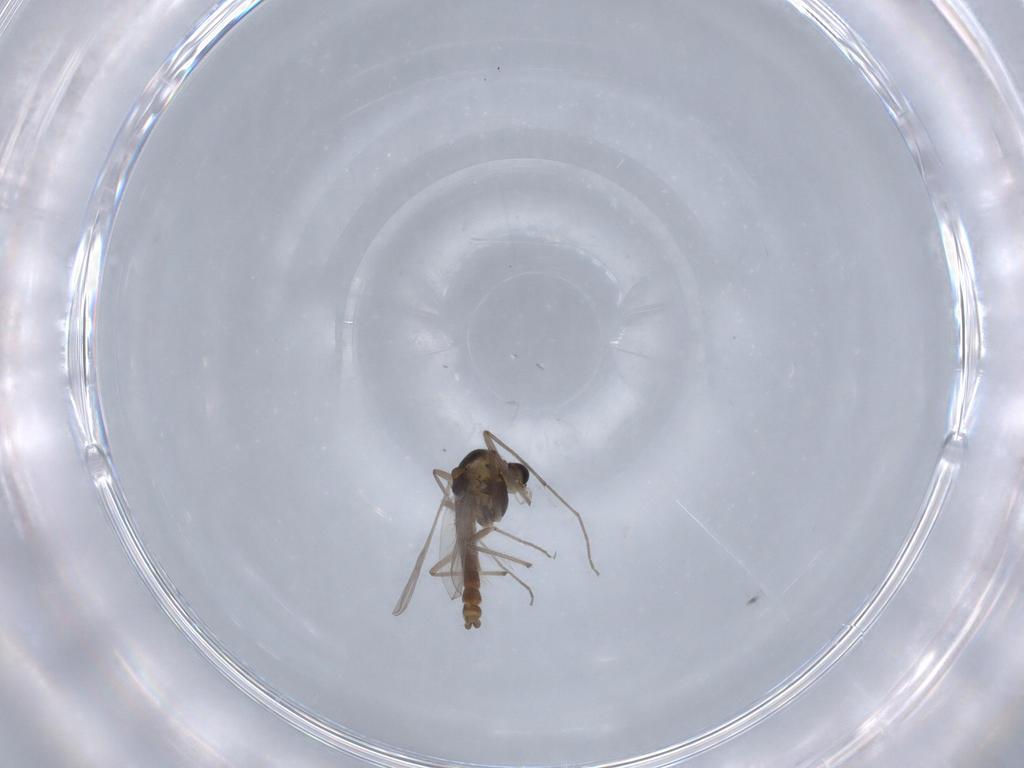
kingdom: Animalia
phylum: Arthropoda
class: Insecta
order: Diptera
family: Chironomidae
